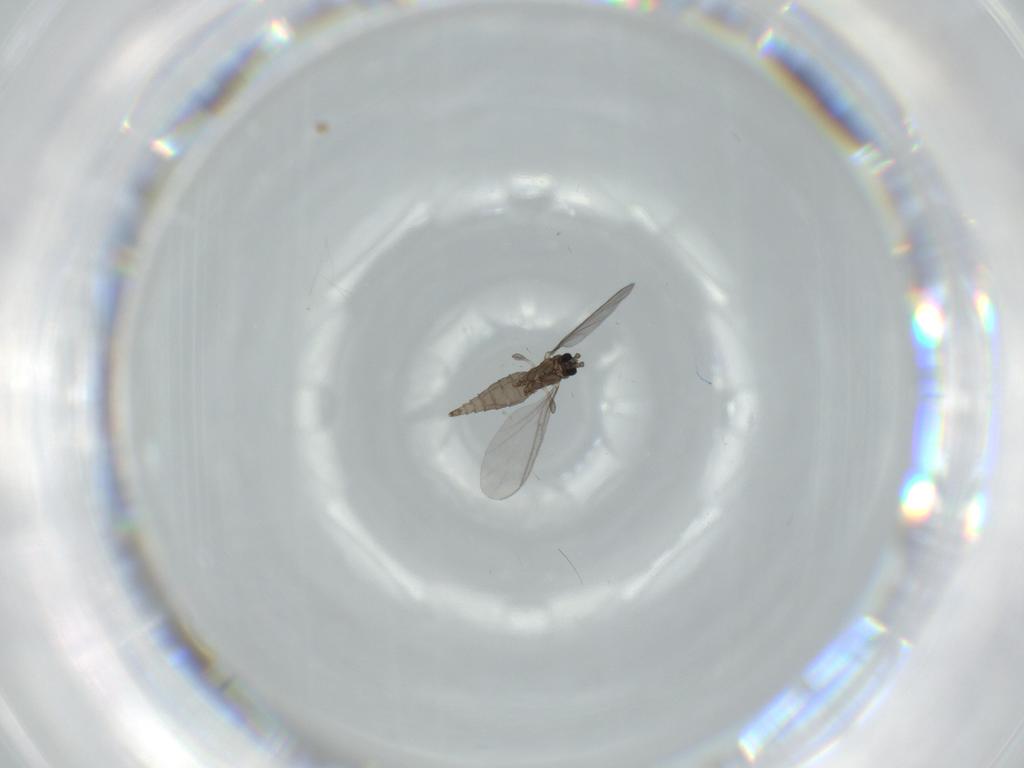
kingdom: Animalia
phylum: Arthropoda
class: Insecta
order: Diptera
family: Sciaridae
